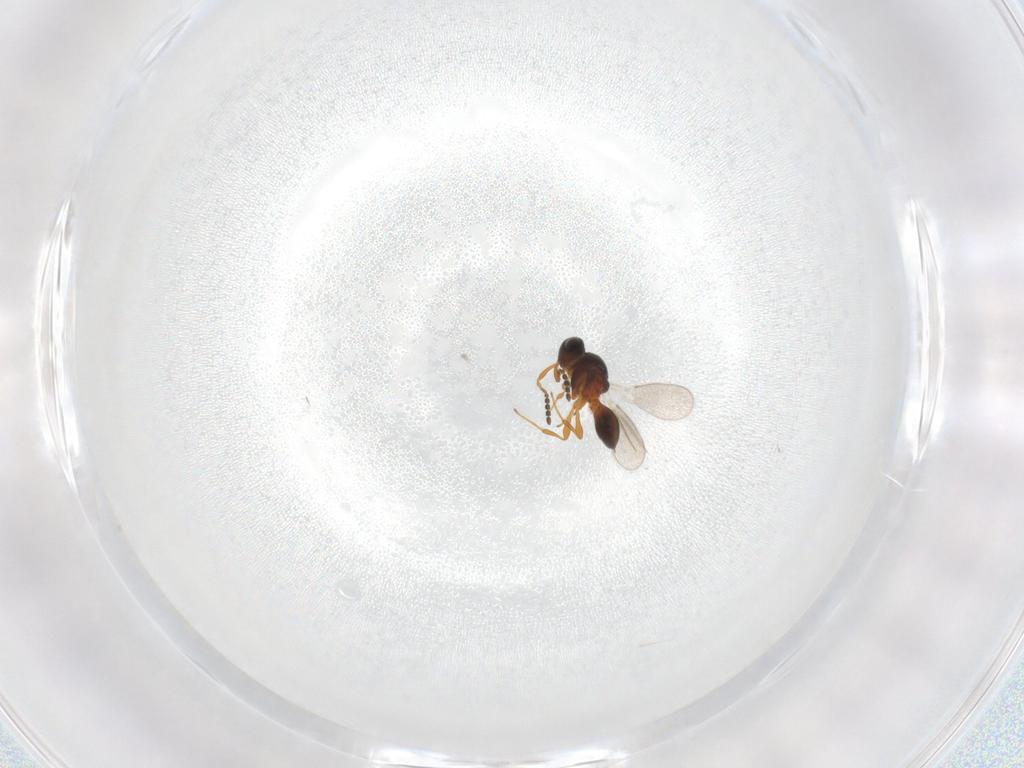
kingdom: Animalia
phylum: Arthropoda
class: Insecta
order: Hymenoptera
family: Platygastridae
